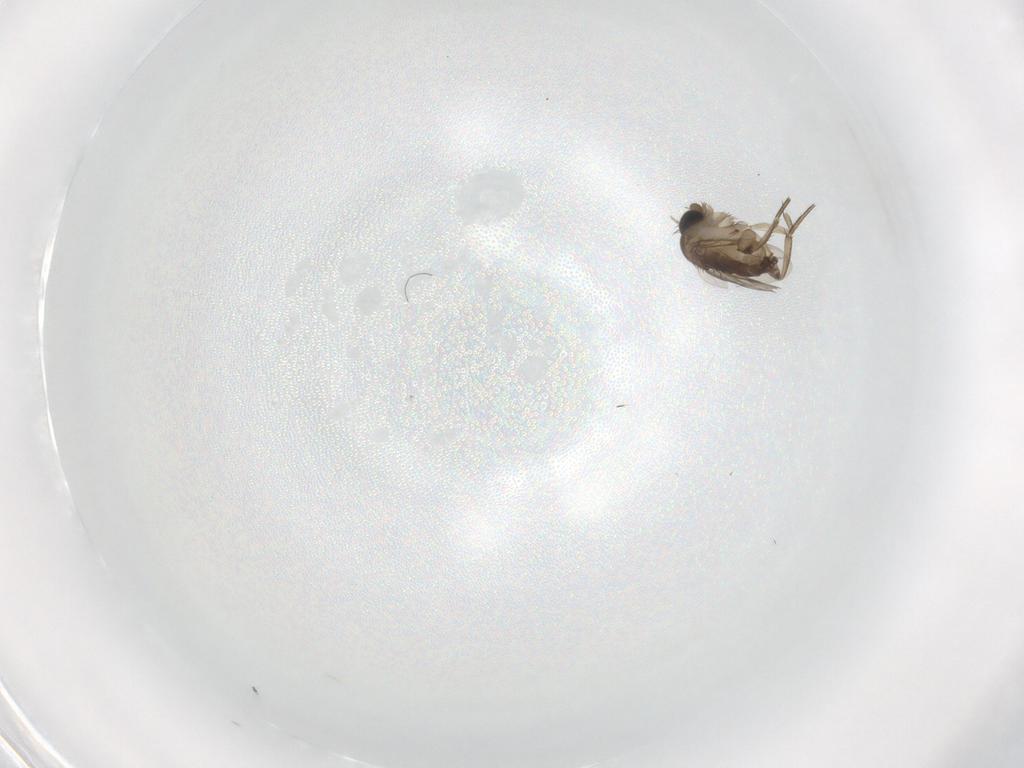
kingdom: Animalia
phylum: Arthropoda
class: Insecta
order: Diptera
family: Phoridae
